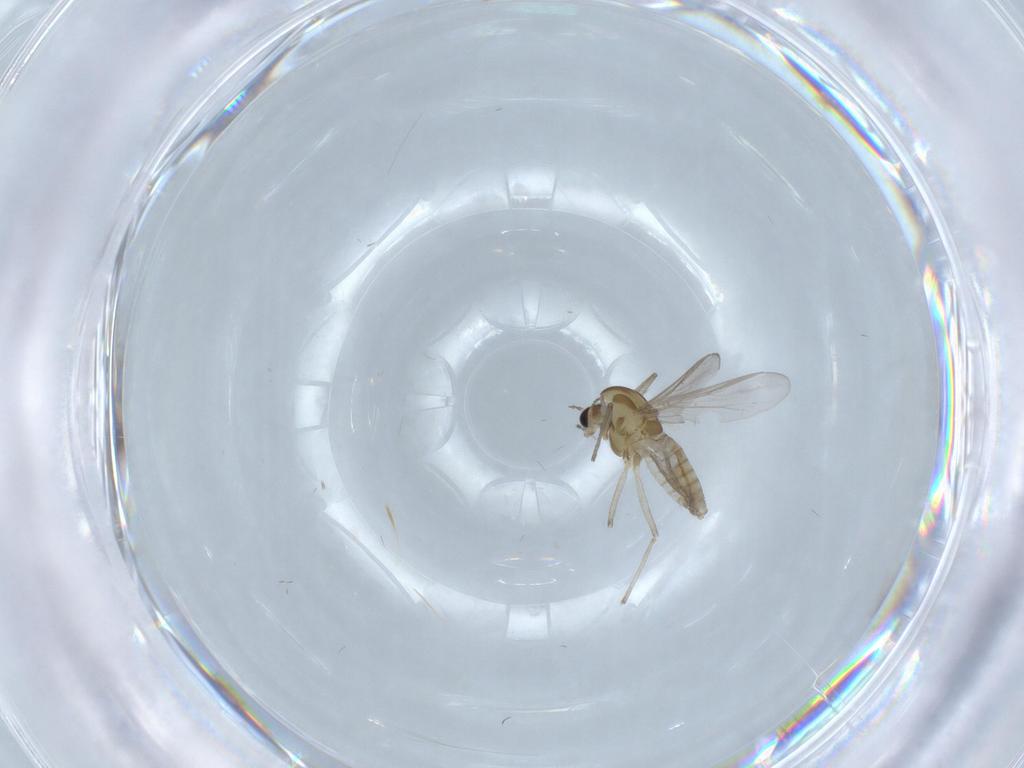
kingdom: Animalia
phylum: Arthropoda
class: Insecta
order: Diptera
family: Chironomidae
